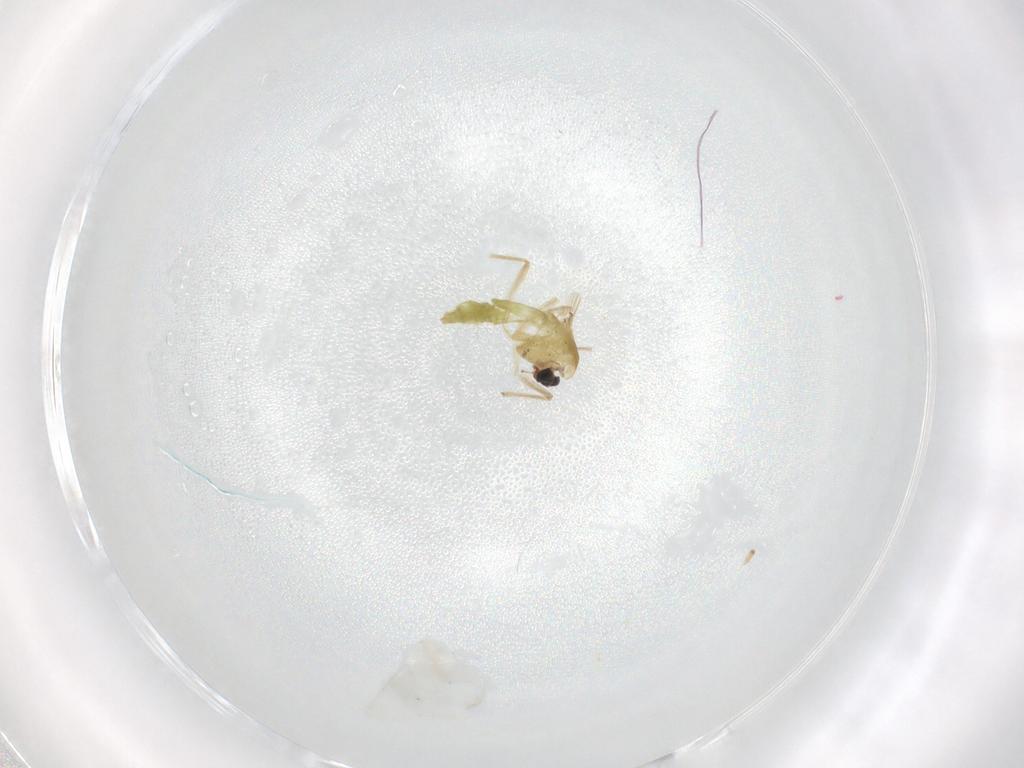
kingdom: Animalia
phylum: Arthropoda
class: Insecta
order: Diptera
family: Chironomidae
